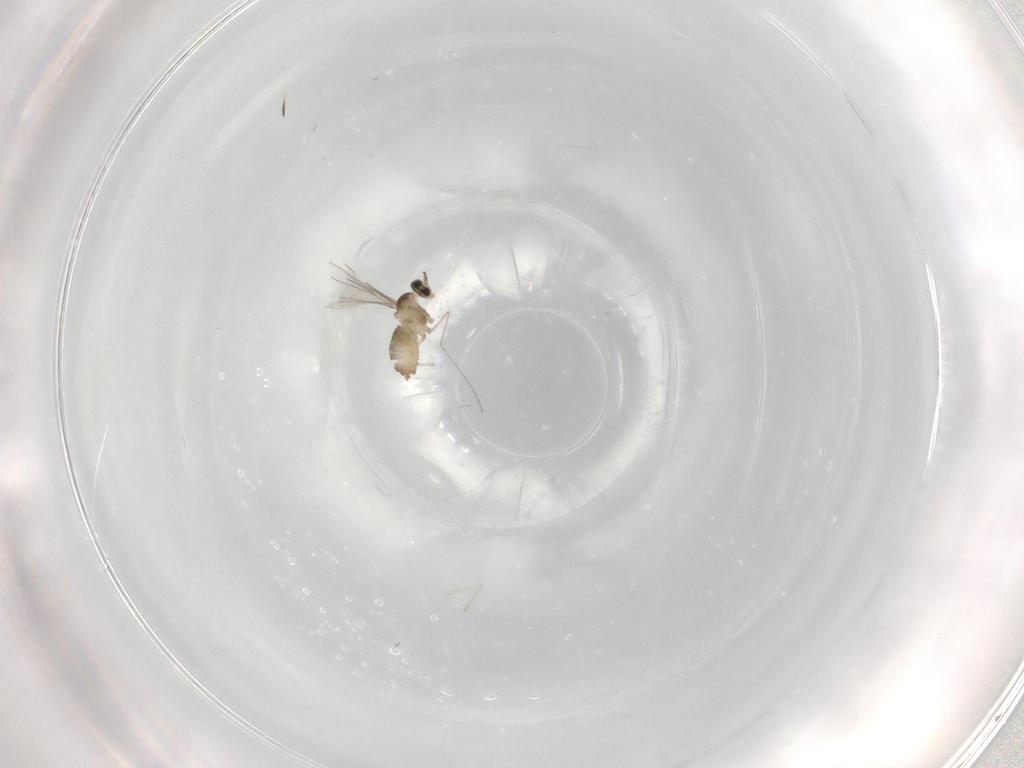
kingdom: Animalia
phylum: Arthropoda
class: Insecta
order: Diptera
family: Cecidomyiidae
